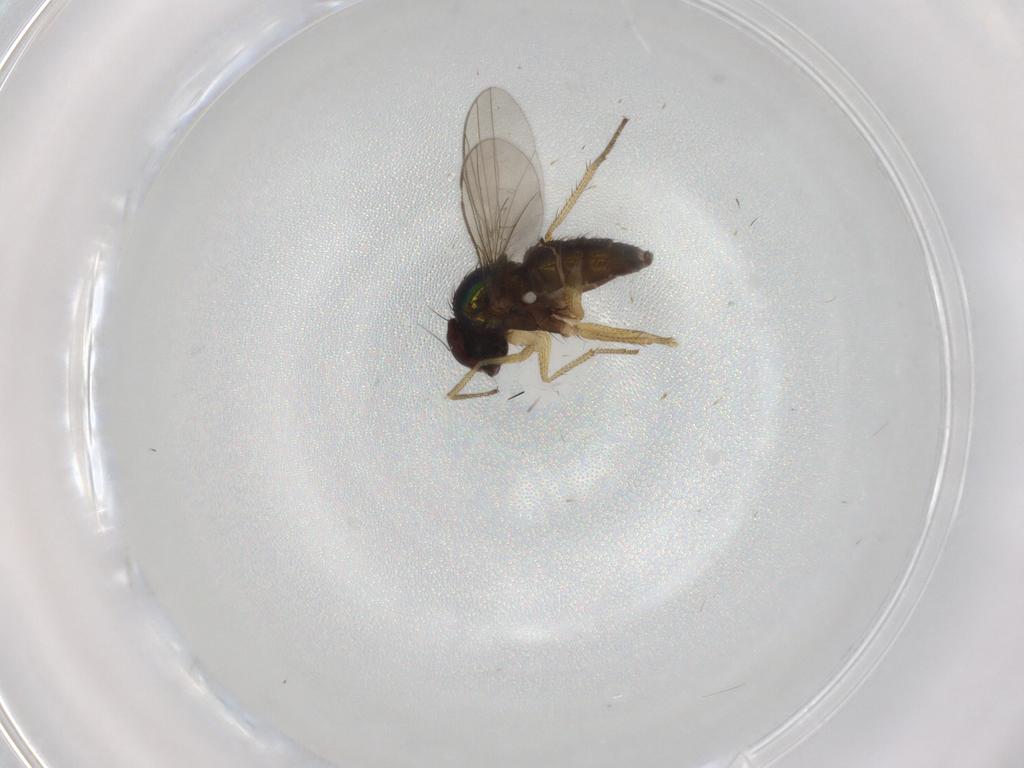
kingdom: Animalia
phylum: Arthropoda
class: Insecta
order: Diptera
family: Dolichopodidae
